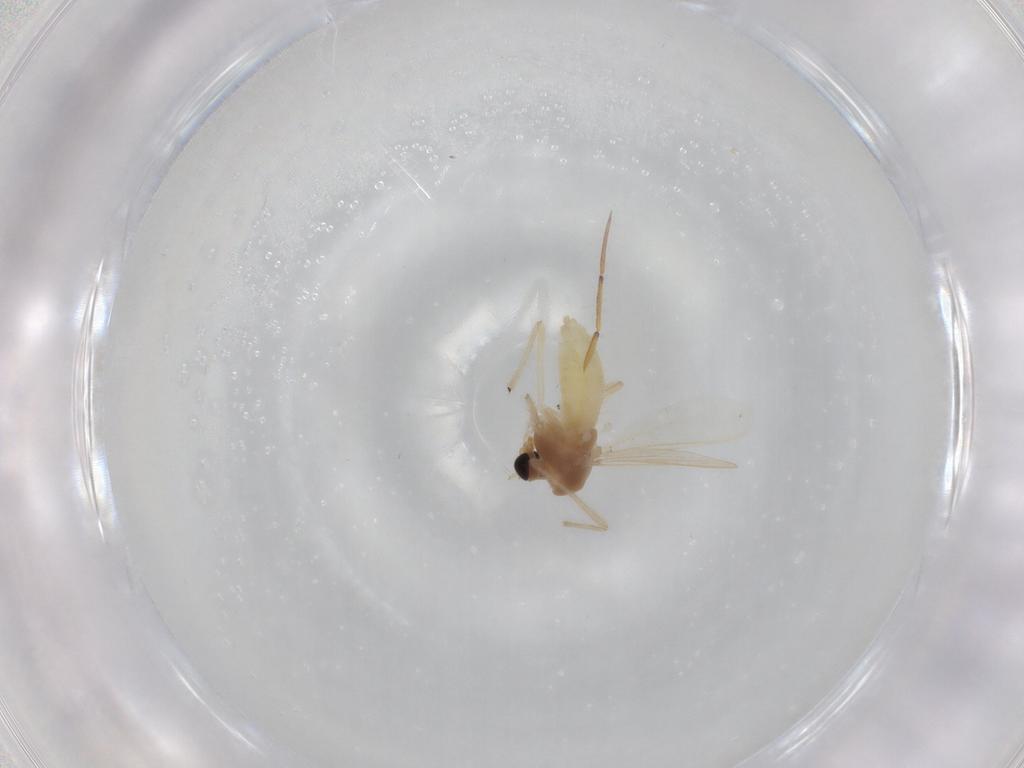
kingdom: Animalia
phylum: Arthropoda
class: Insecta
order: Diptera
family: Chironomidae
